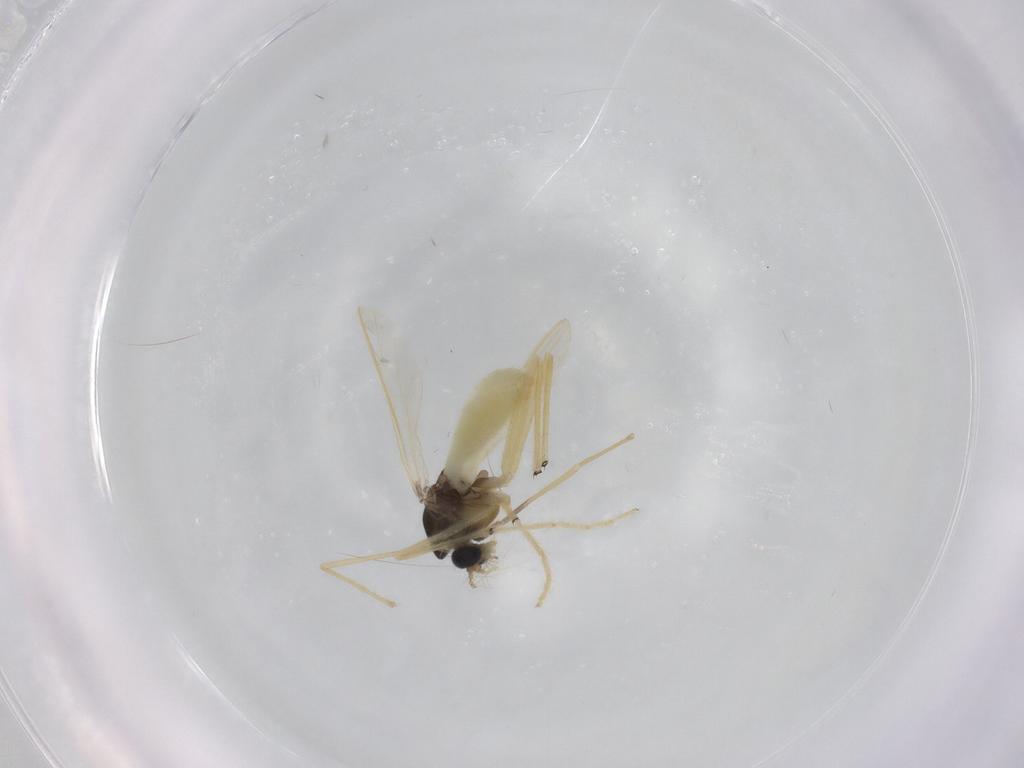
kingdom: Animalia
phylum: Arthropoda
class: Insecta
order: Diptera
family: Chironomidae
